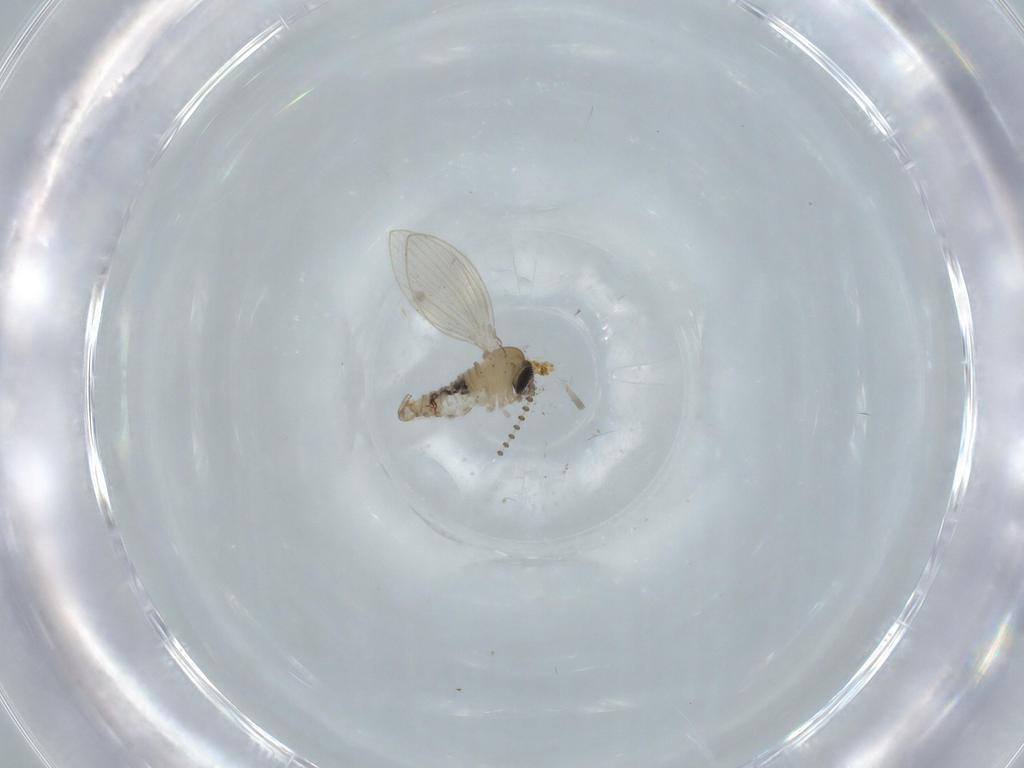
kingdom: Animalia
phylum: Arthropoda
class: Insecta
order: Diptera
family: Psychodidae
